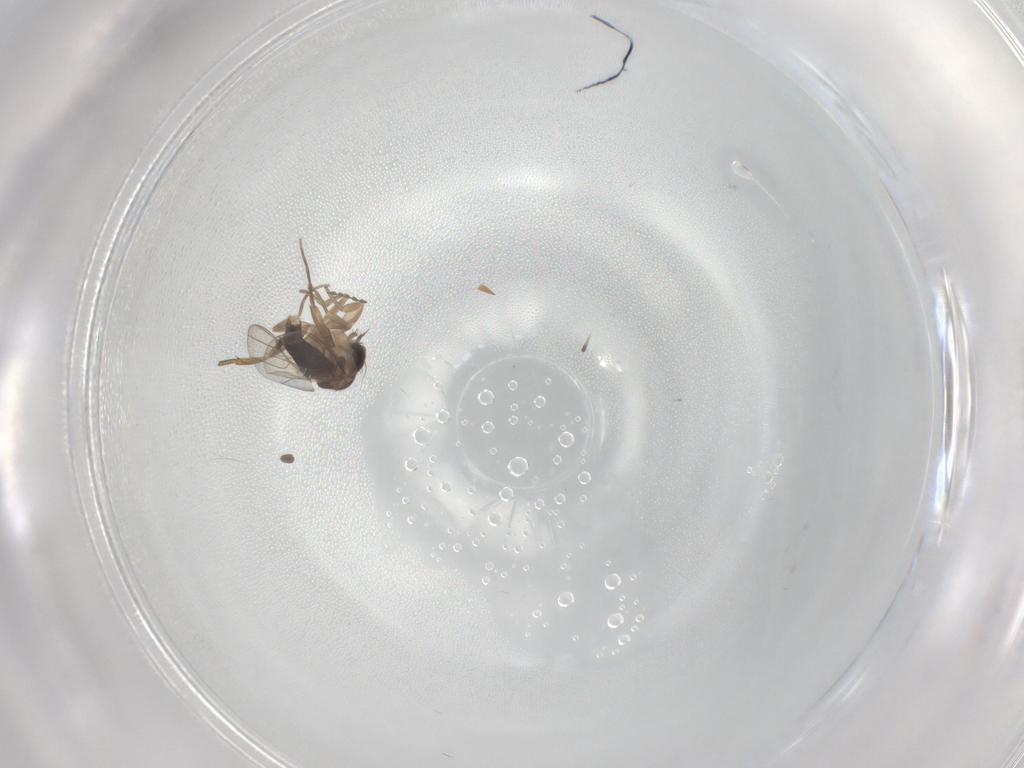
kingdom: Animalia
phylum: Arthropoda
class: Insecta
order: Diptera
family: Phoridae
